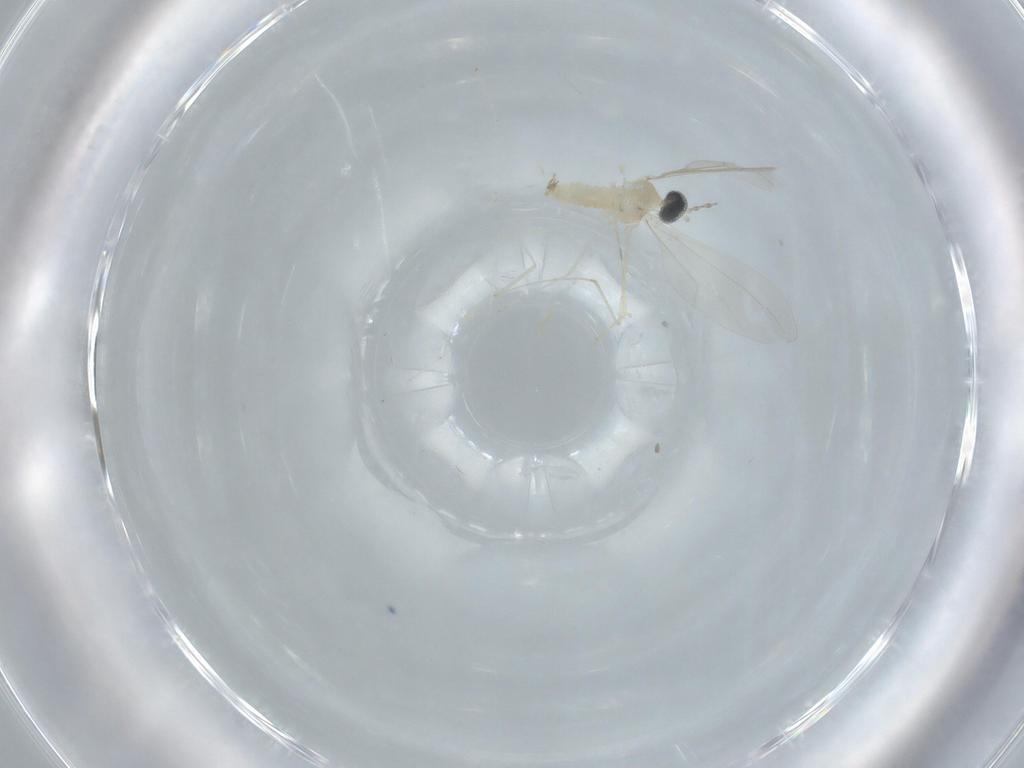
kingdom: Animalia
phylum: Arthropoda
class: Insecta
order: Diptera
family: Cecidomyiidae
